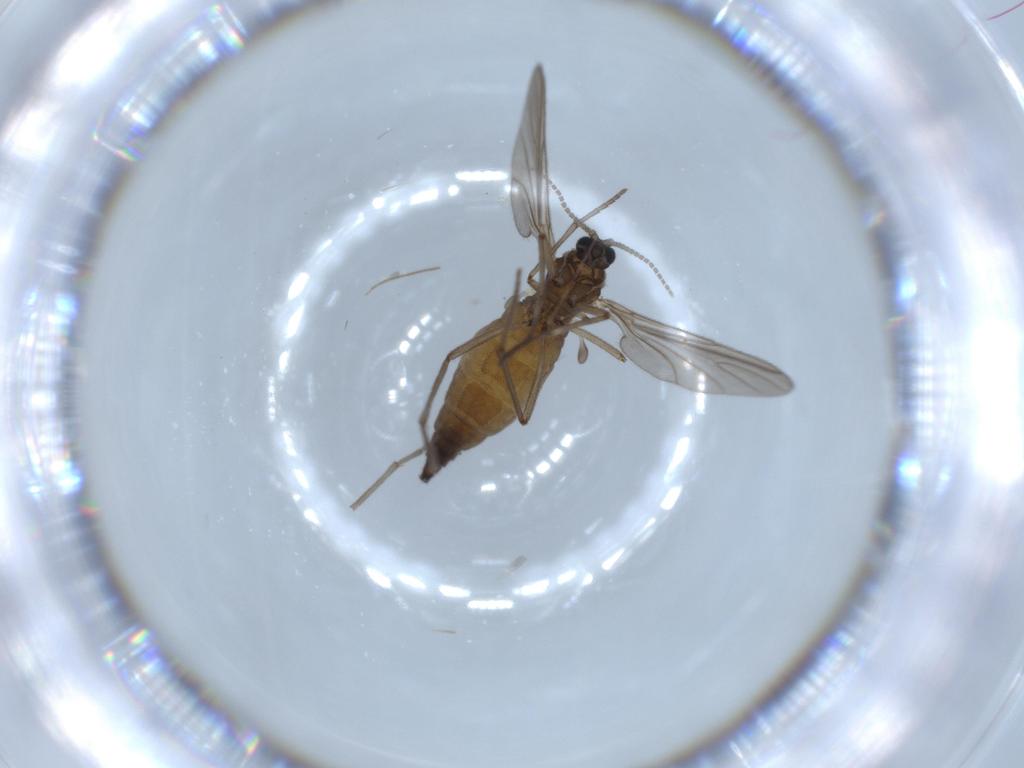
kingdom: Animalia
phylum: Arthropoda
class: Insecta
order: Diptera
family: Sciaridae
